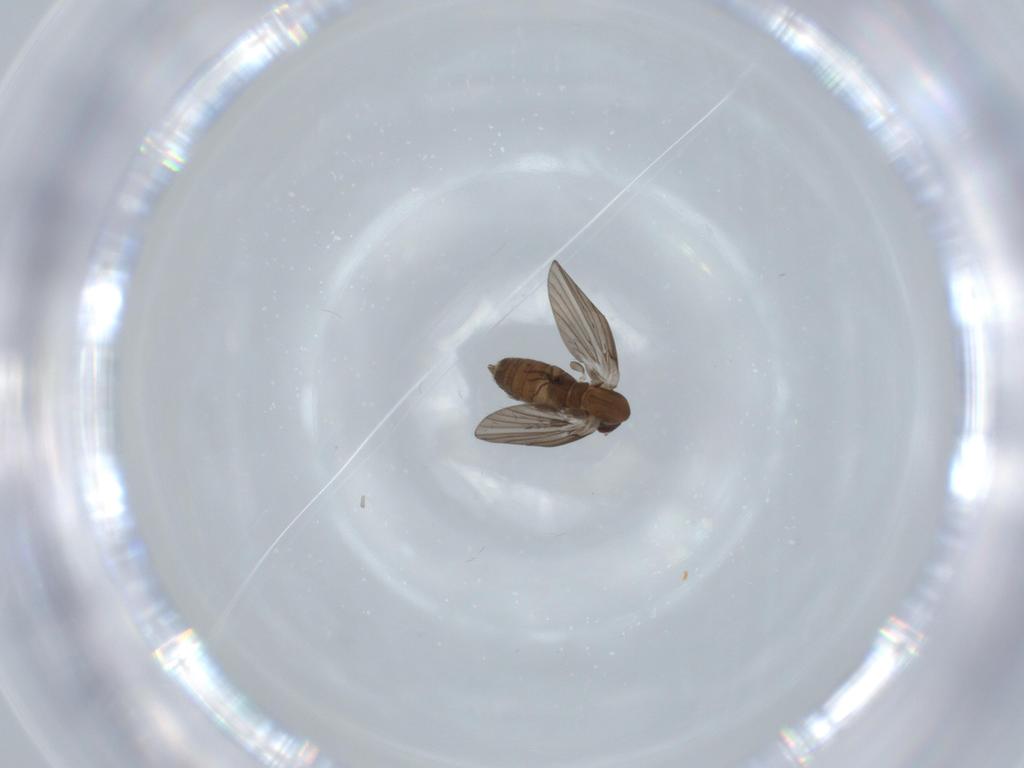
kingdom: Animalia
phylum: Arthropoda
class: Insecta
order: Diptera
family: Psychodidae
